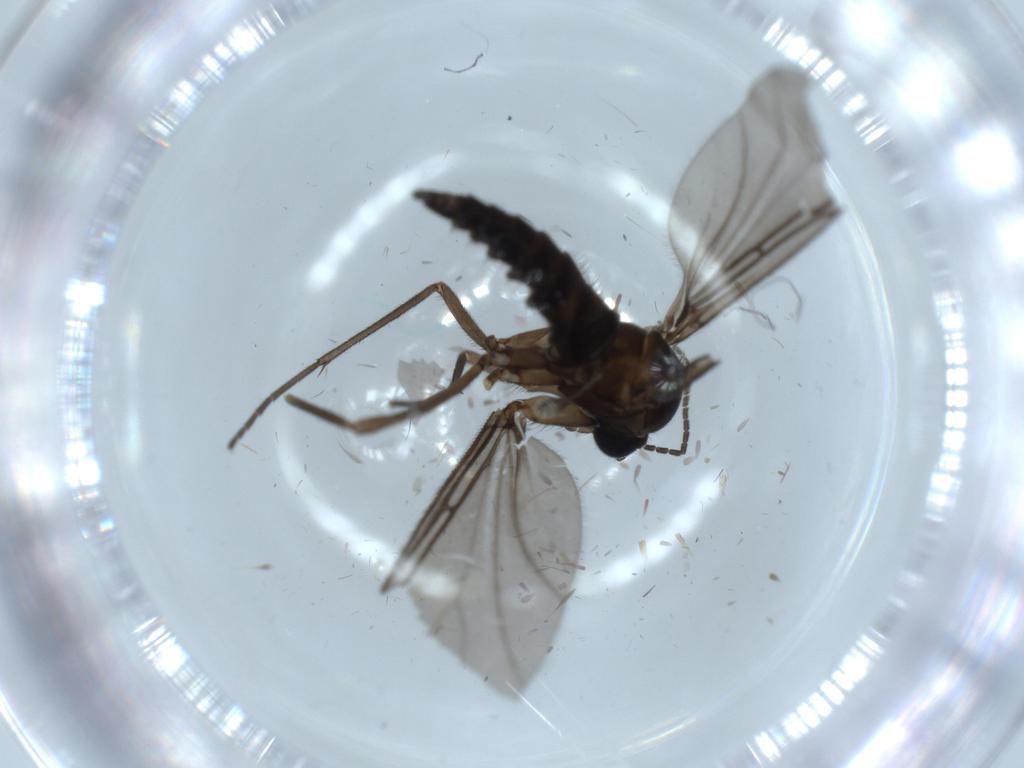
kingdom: Animalia
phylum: Arthropoda
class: Insecta
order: Diptera
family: Sciaridae
